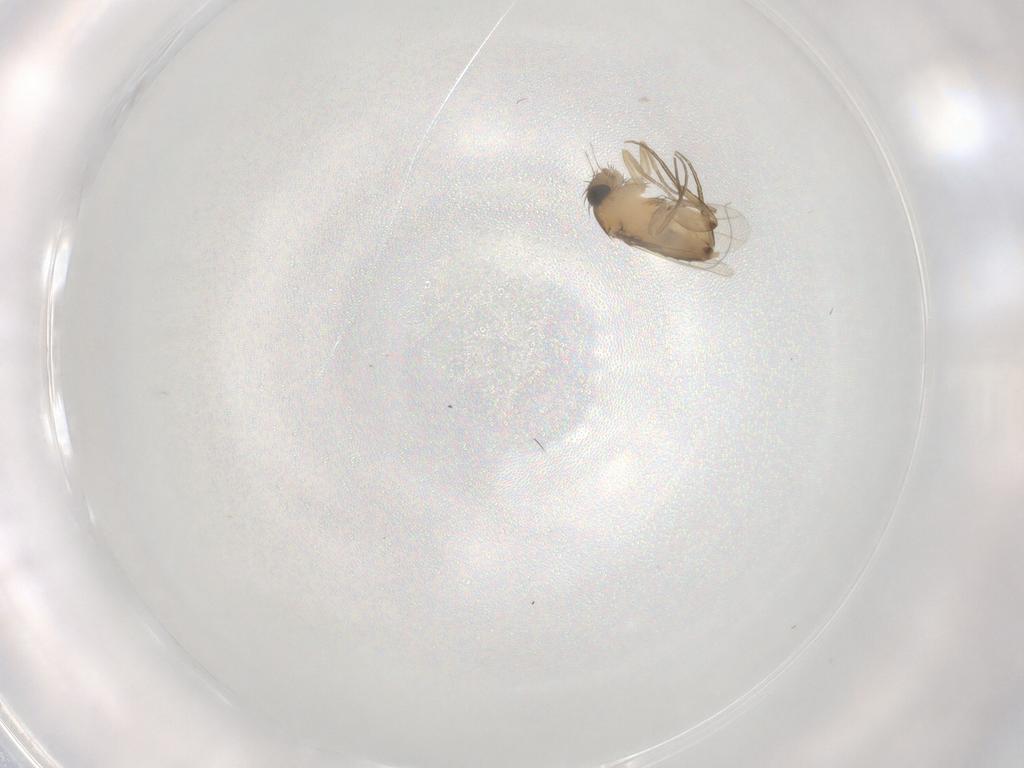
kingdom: Animalia
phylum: Arthropoda
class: Insecta
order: Diptera
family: Phoridae
